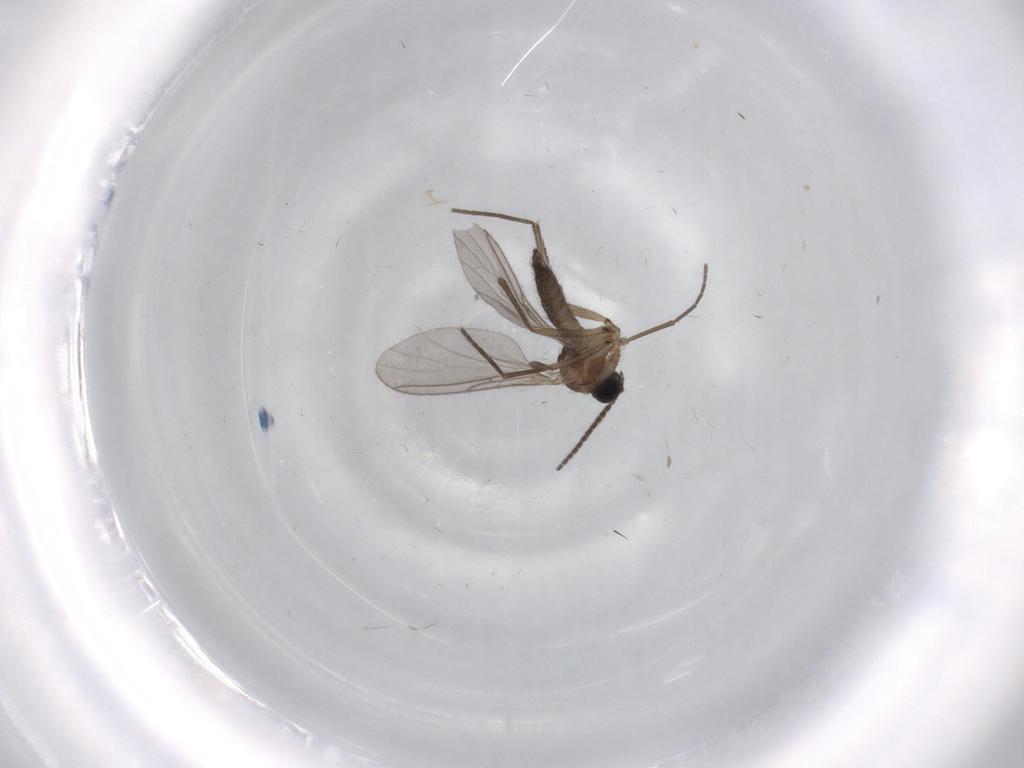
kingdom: Animalia
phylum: Arthropoda
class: Insecta
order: Diptera
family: Sciaridae
